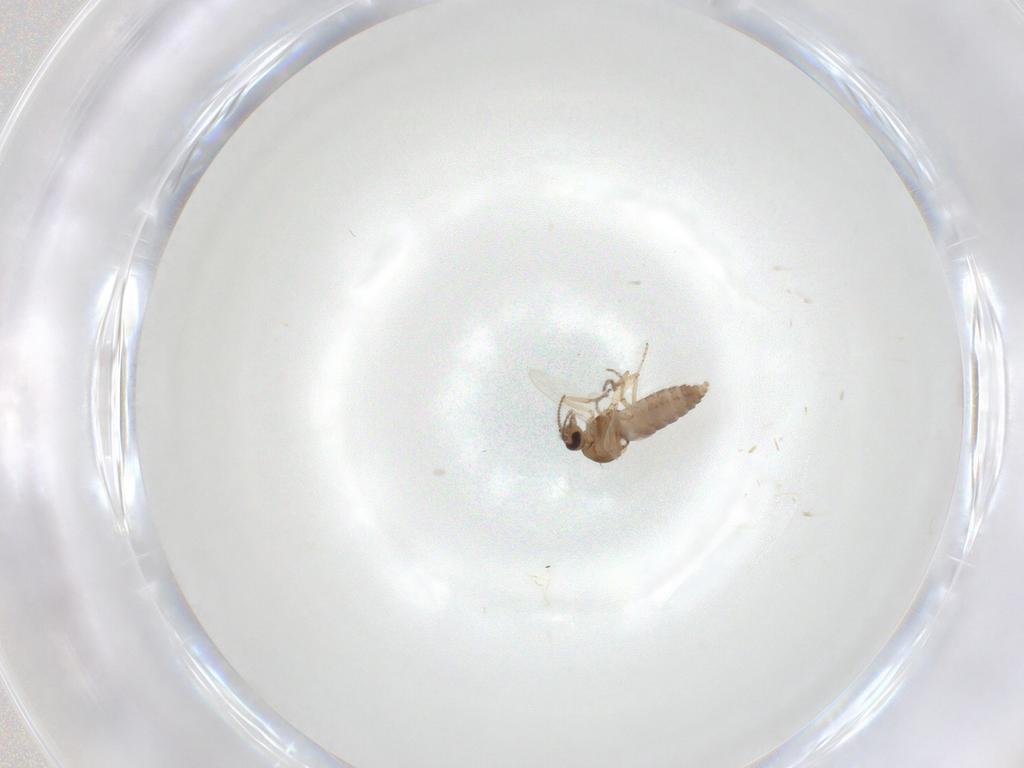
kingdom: Animalia
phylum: Arthropoda
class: Insecta
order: Diptera
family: Ceratopogonidae
